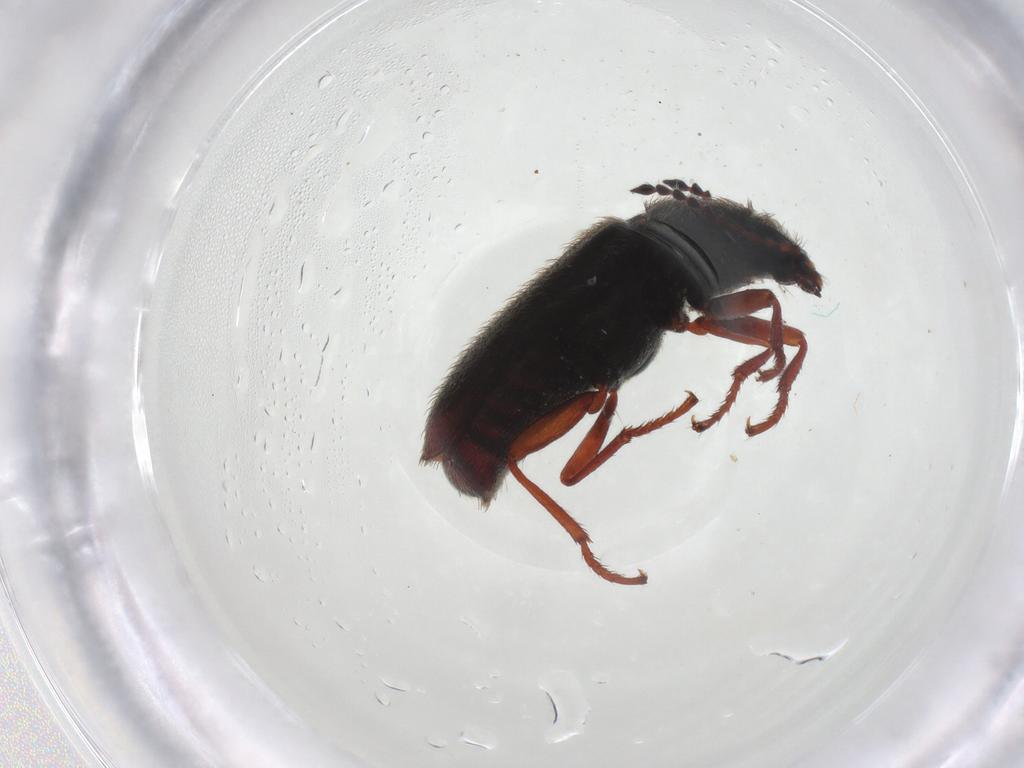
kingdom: Animalia
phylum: Arthropoda
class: Insecta
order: Coleoptera
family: Melyridae
